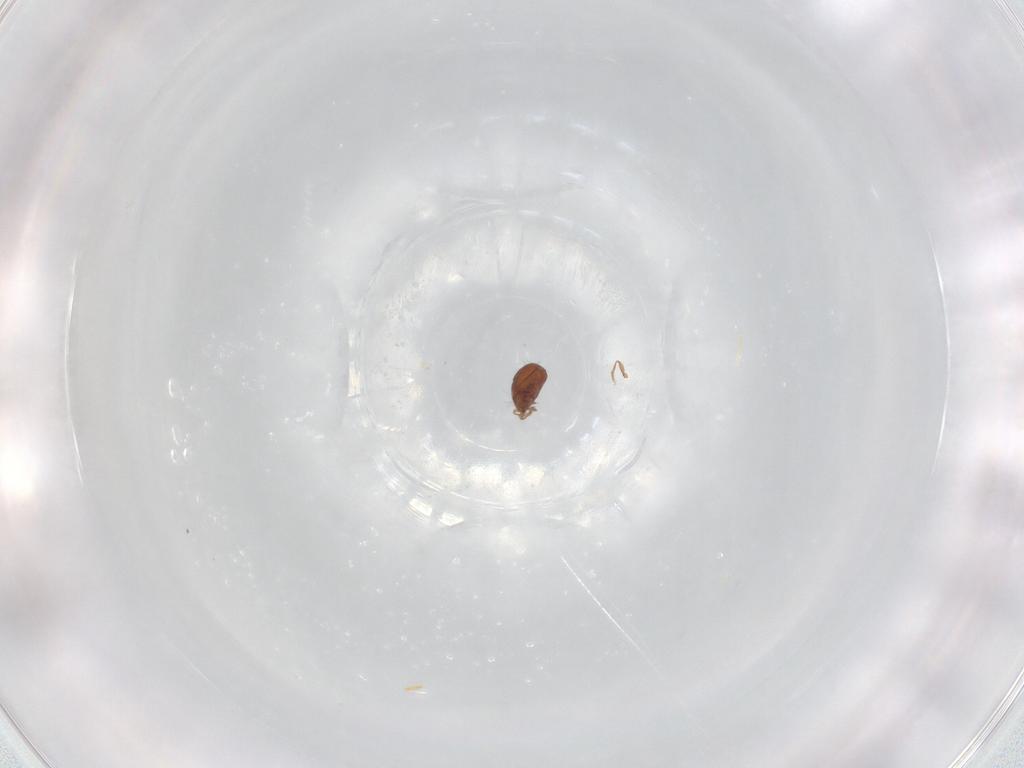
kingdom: Animalia
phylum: Arthropoda
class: Arachnida
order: Sarcoptiformes
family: Oribatulidae
